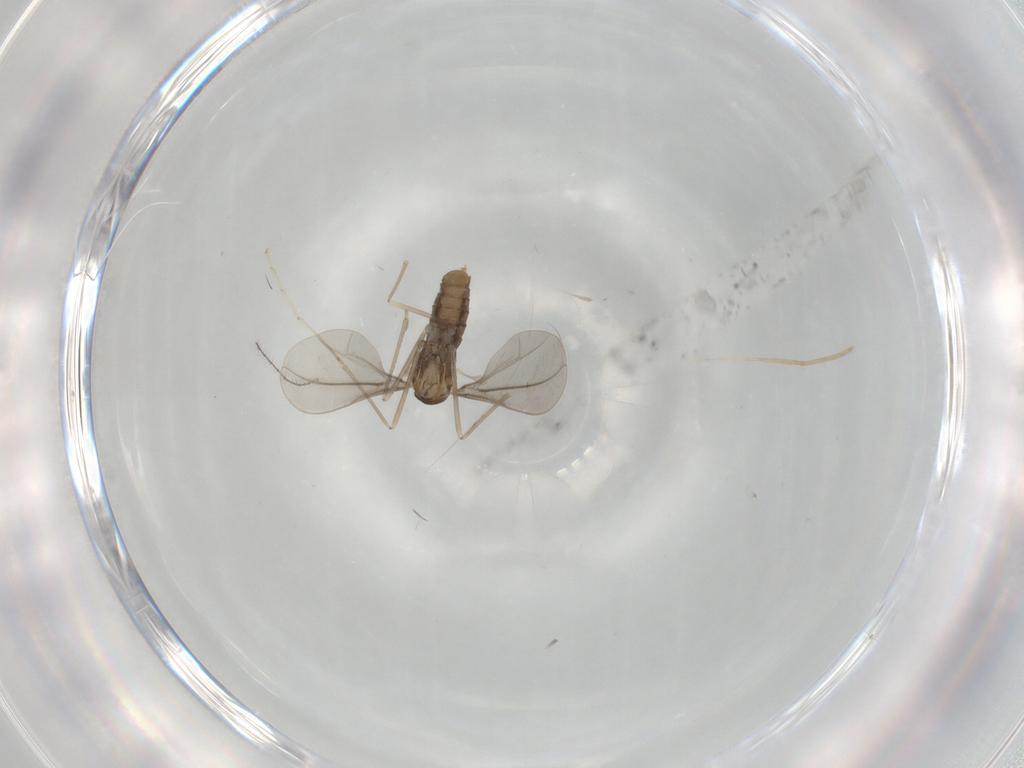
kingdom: Animalia
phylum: Arthropoda
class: Insecta
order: Diptera
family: Cecidomyiidae
